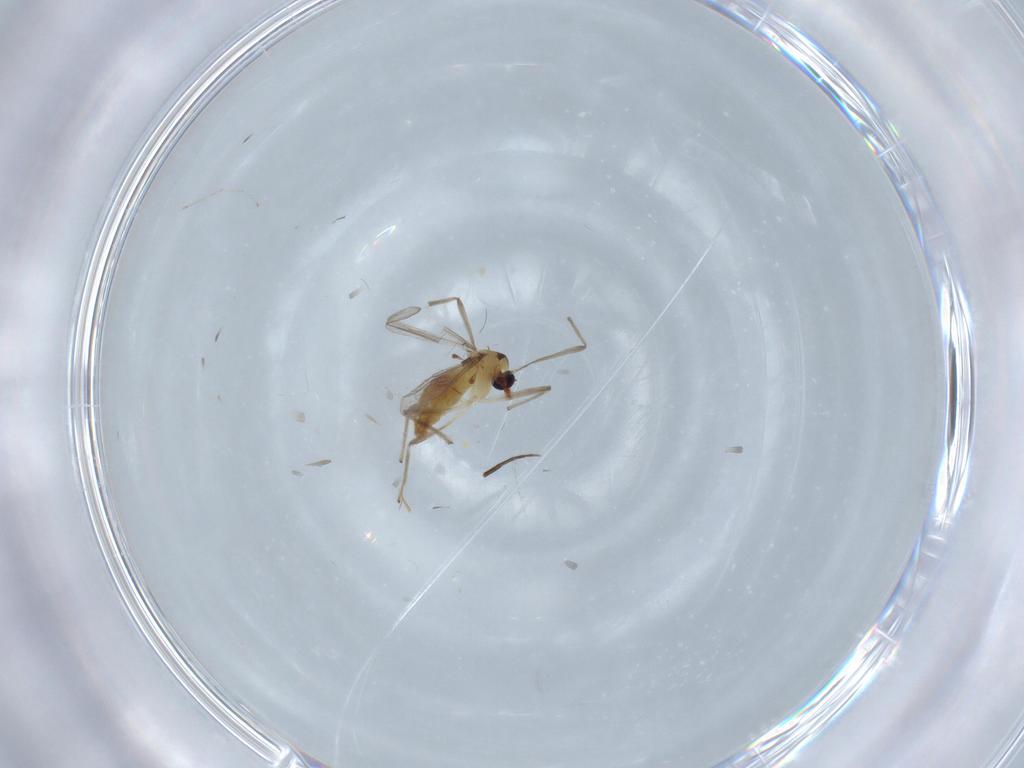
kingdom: Animalia
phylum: Arthropoda
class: Insecta
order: Diptera
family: Chironomidae
